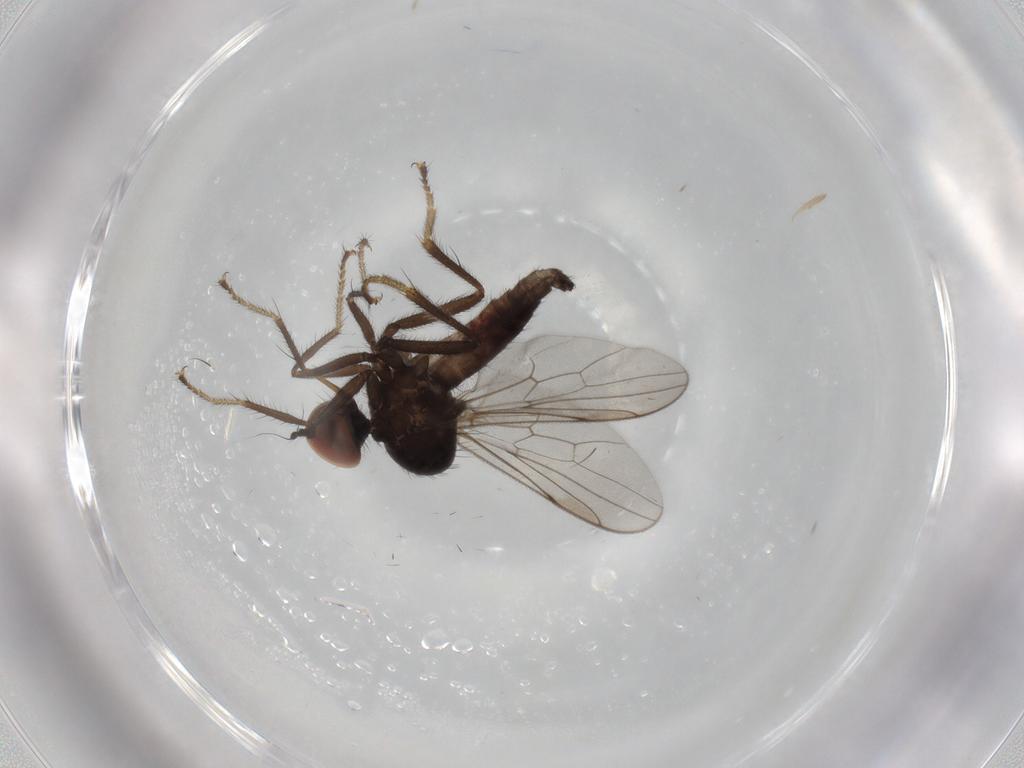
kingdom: Animalia
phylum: Arthropoda
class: Insecta
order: Diptera
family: Hybotidae
